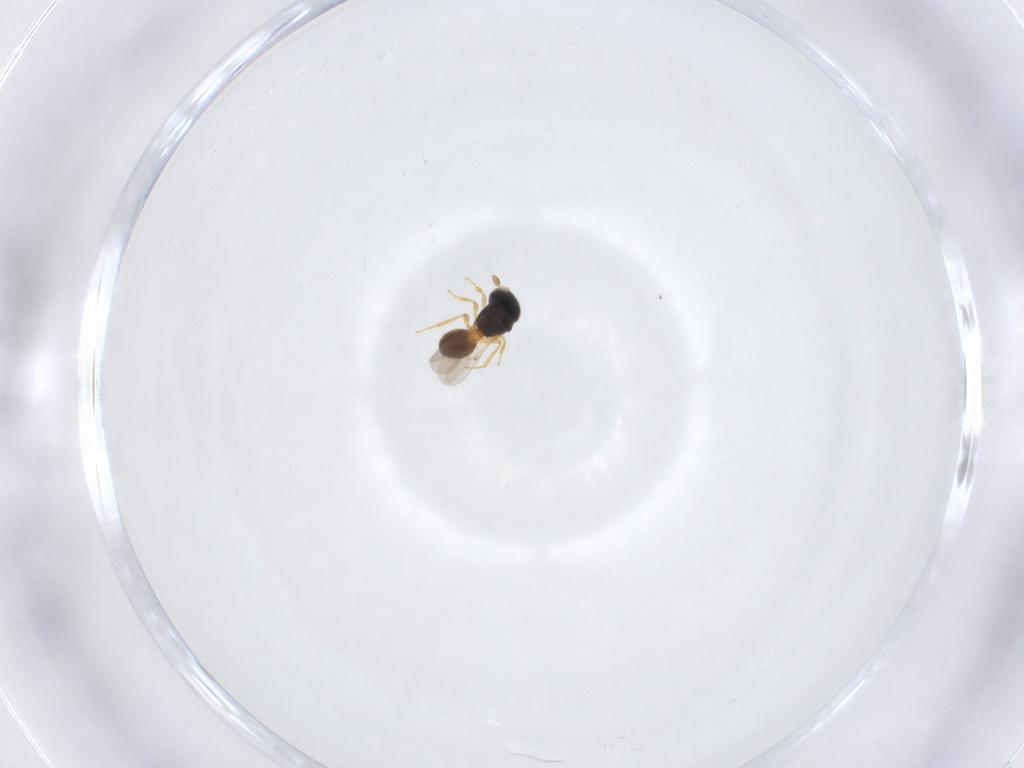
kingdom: Animalia
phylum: Arthropoda
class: Insecta
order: Hymenoptera
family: Scelionidae
